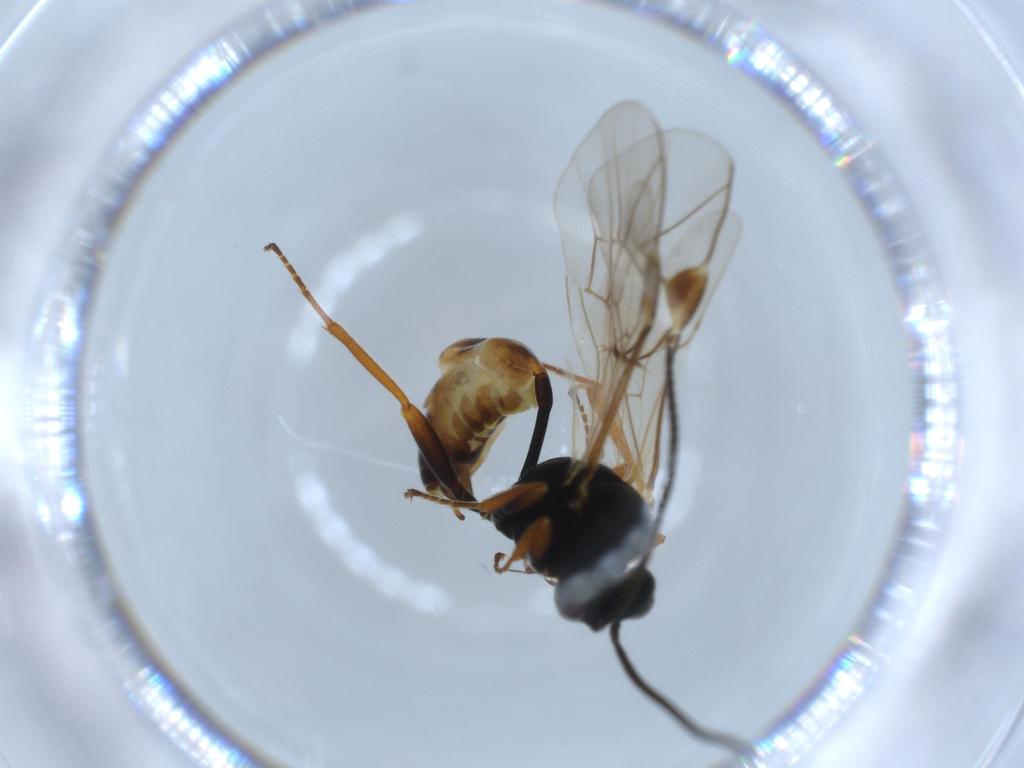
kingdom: Animalia
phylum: Arthropoda
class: Insecta
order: Hymenoptera
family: Ichneumonidae
